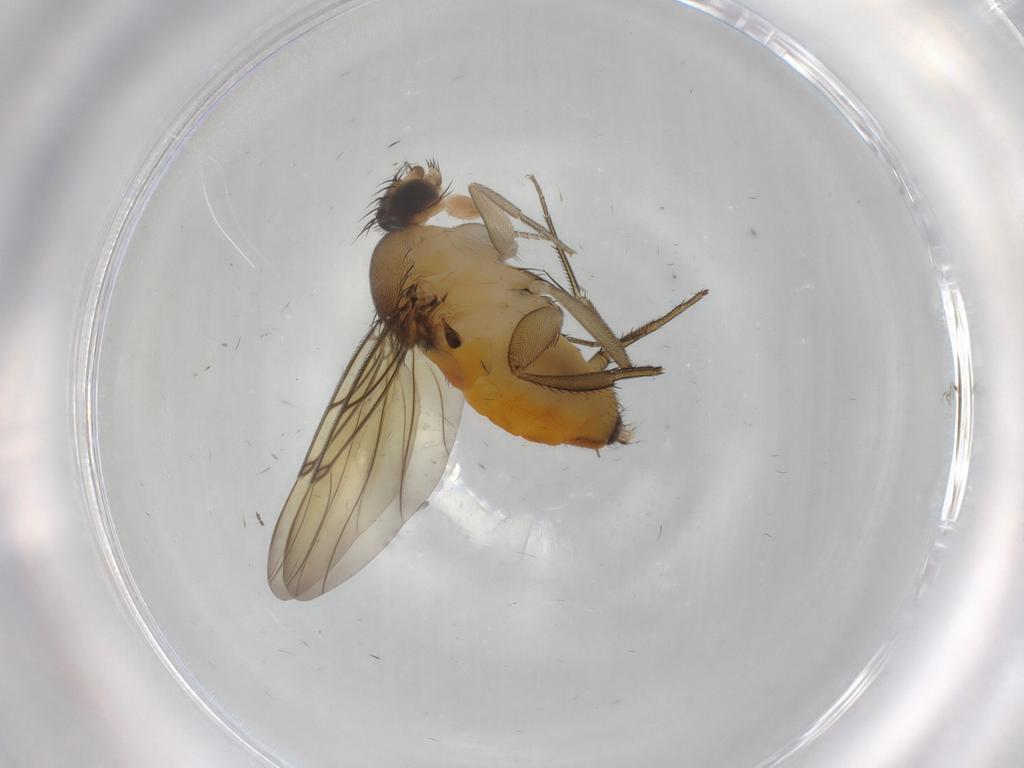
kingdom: Animalia
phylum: Arthropoda
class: Insecta
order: Diptera
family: Phoridae
